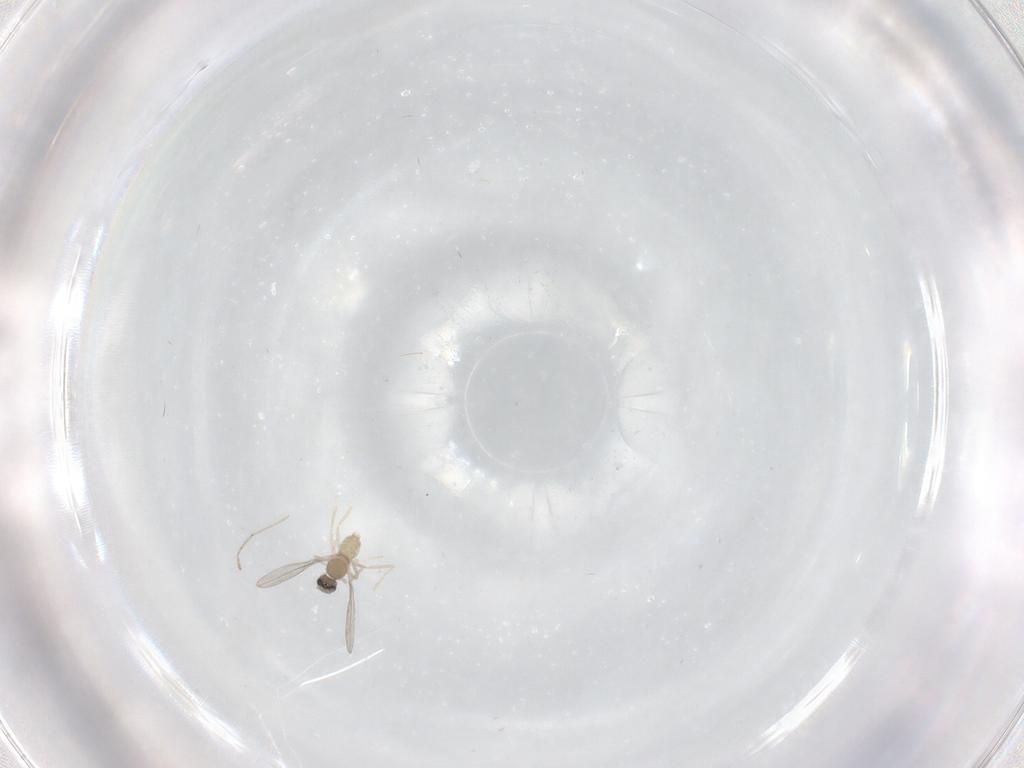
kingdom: Animalia
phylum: Arthropoda
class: Insecta
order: Diptera
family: Cecidomyiidae
